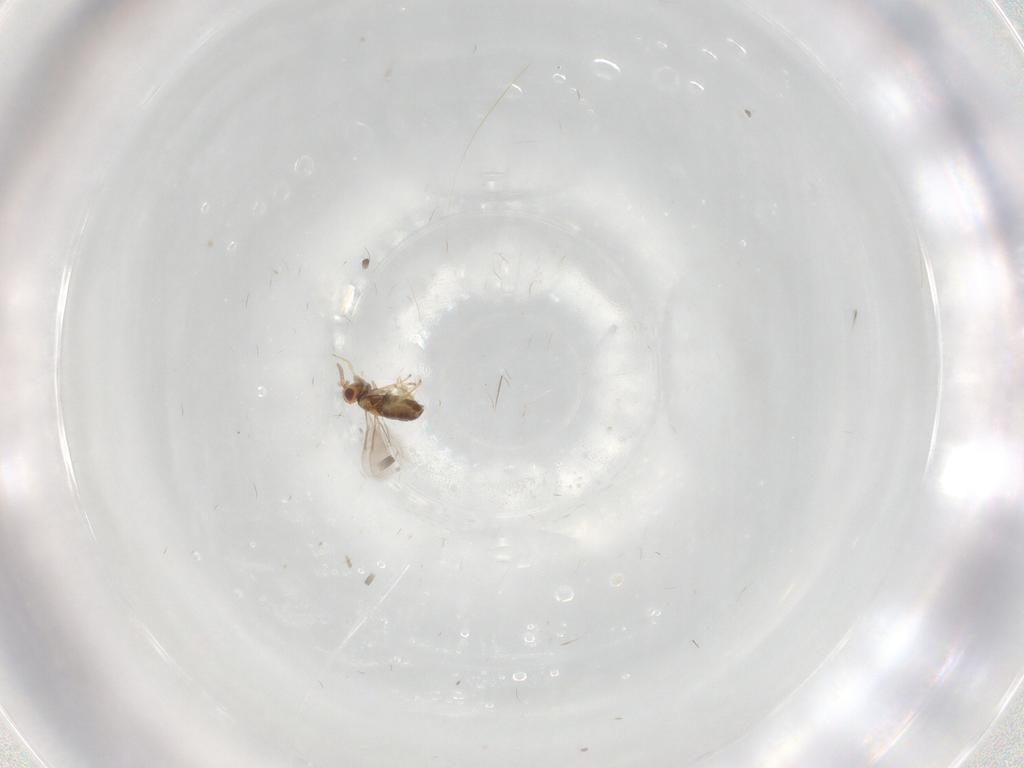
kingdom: Animalia
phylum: Arthropoda
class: Insecta
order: Hymenoptera
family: Aphelinidae
